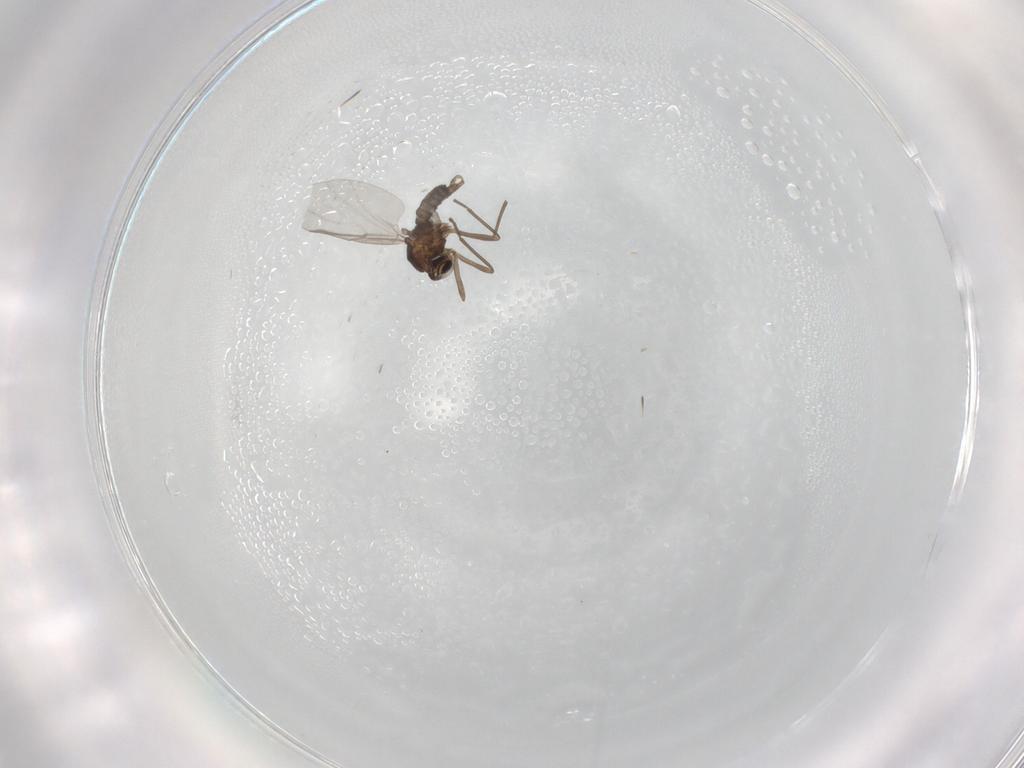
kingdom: Animalia
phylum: Arthropoda
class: Insecta
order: Diptera
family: Cecidomyiidae
